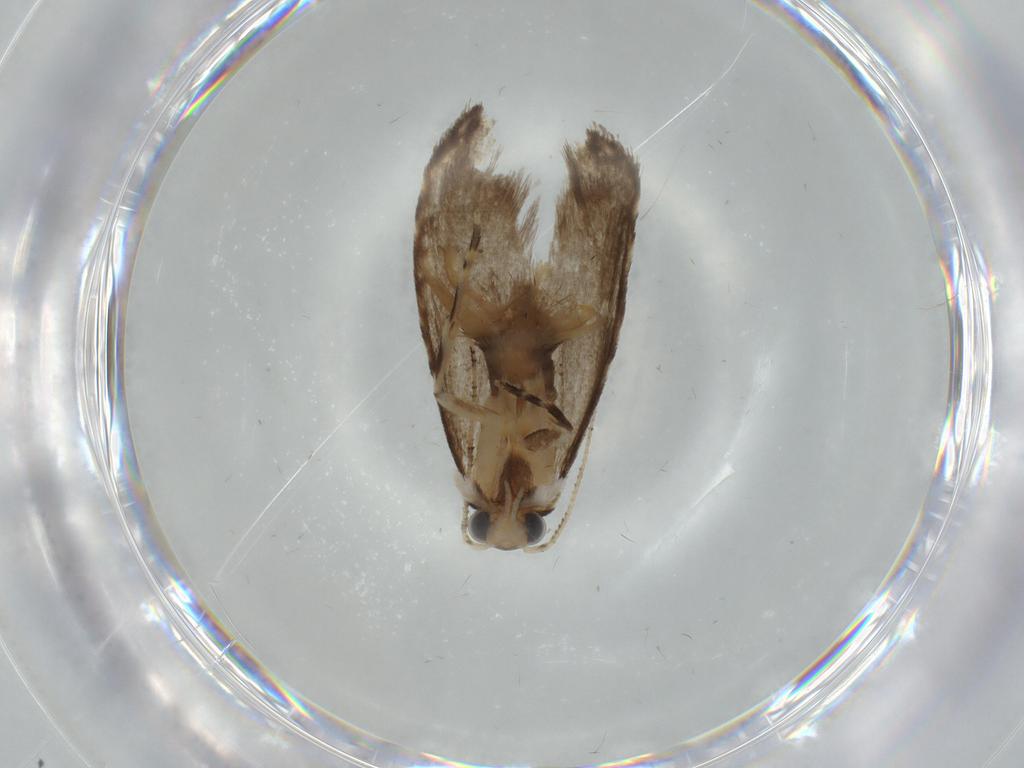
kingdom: Animalia
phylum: Arthropoda
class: Insecta
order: Lepidoptera
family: Tineidae
